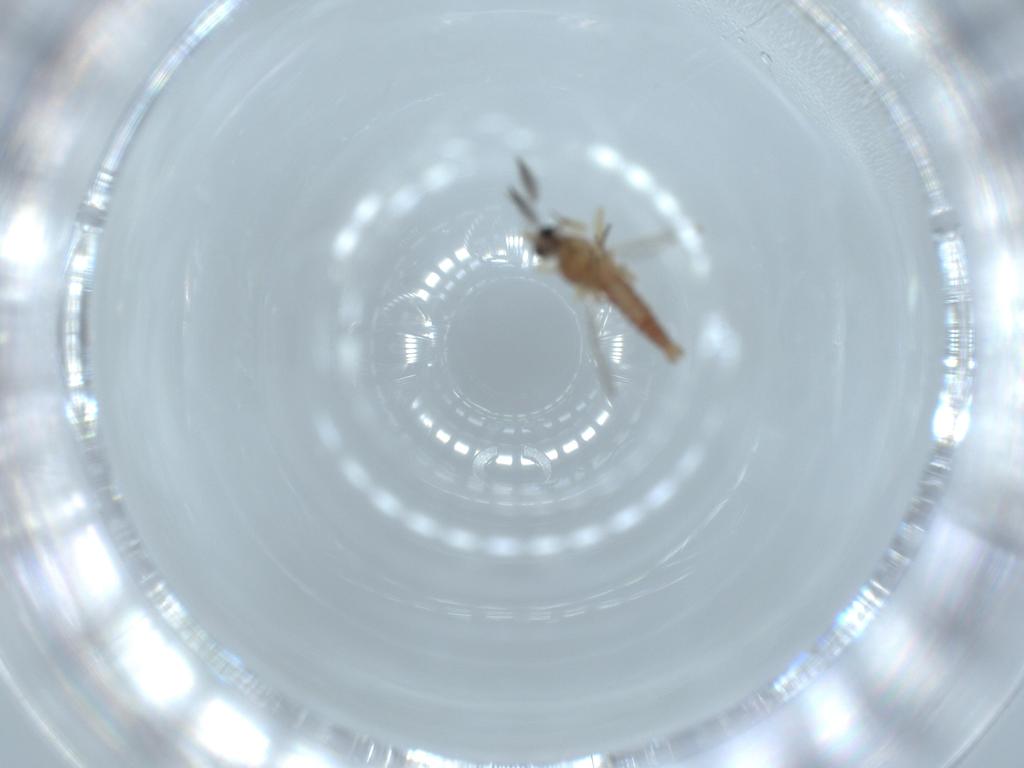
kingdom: Animalia
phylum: Arthropoda
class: Insecta
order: Diptera
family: Ceratopogonidae
